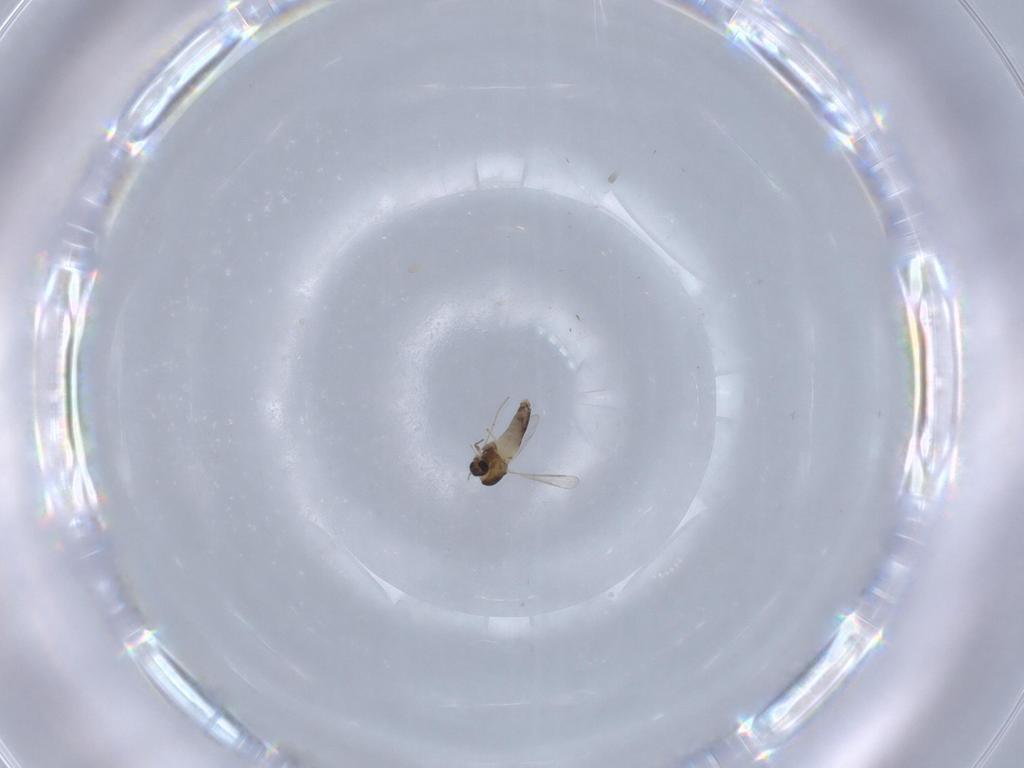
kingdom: Animalia
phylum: Arthropoda
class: Insecta
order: Diptera
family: Chironomidae
